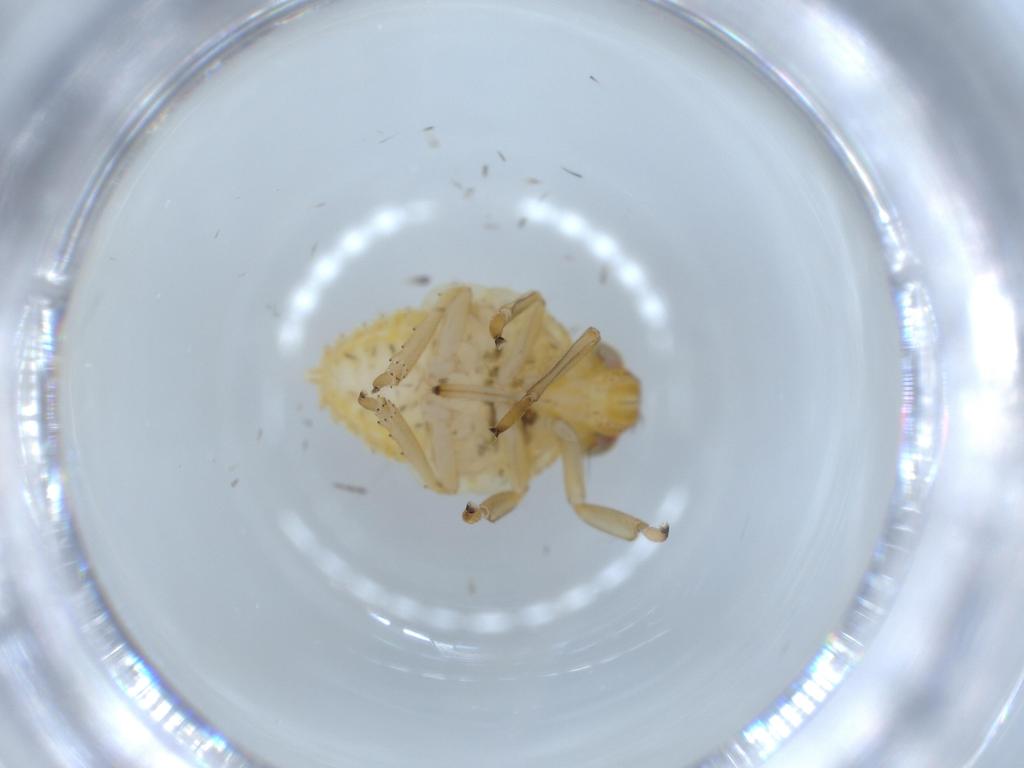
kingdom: Animalia
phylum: Arthropoda
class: Insecta
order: Hemiptera
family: Issidae
